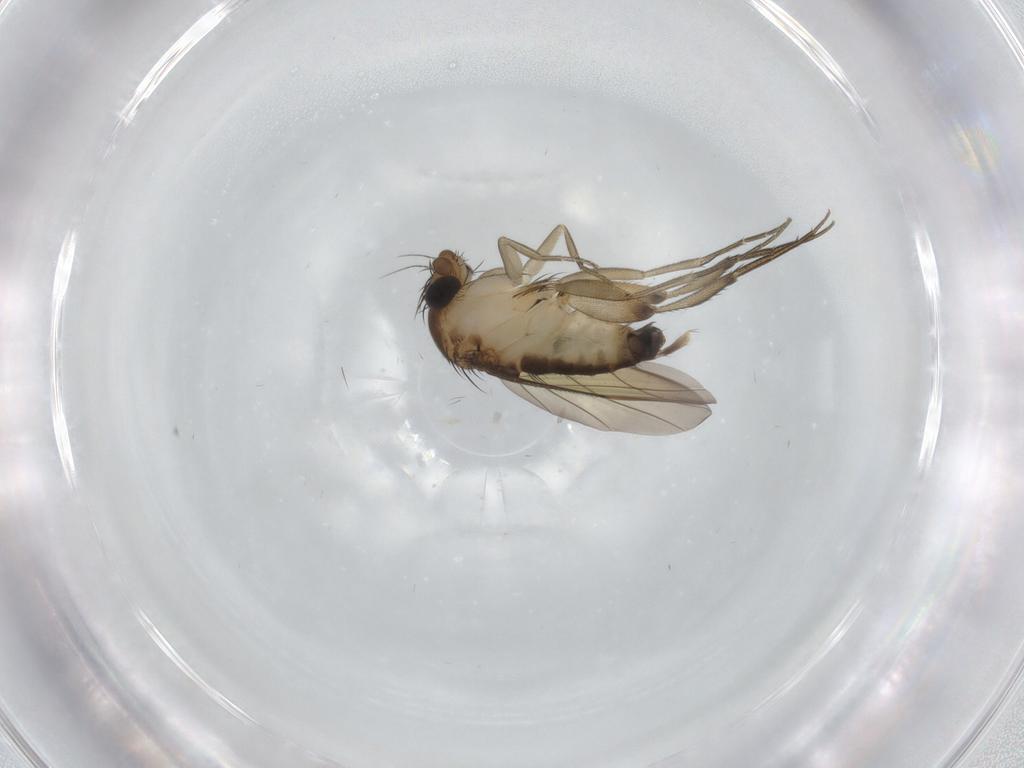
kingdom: Animalia
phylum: Arthropoda
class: Insecta
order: Diptera
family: Phoridae
